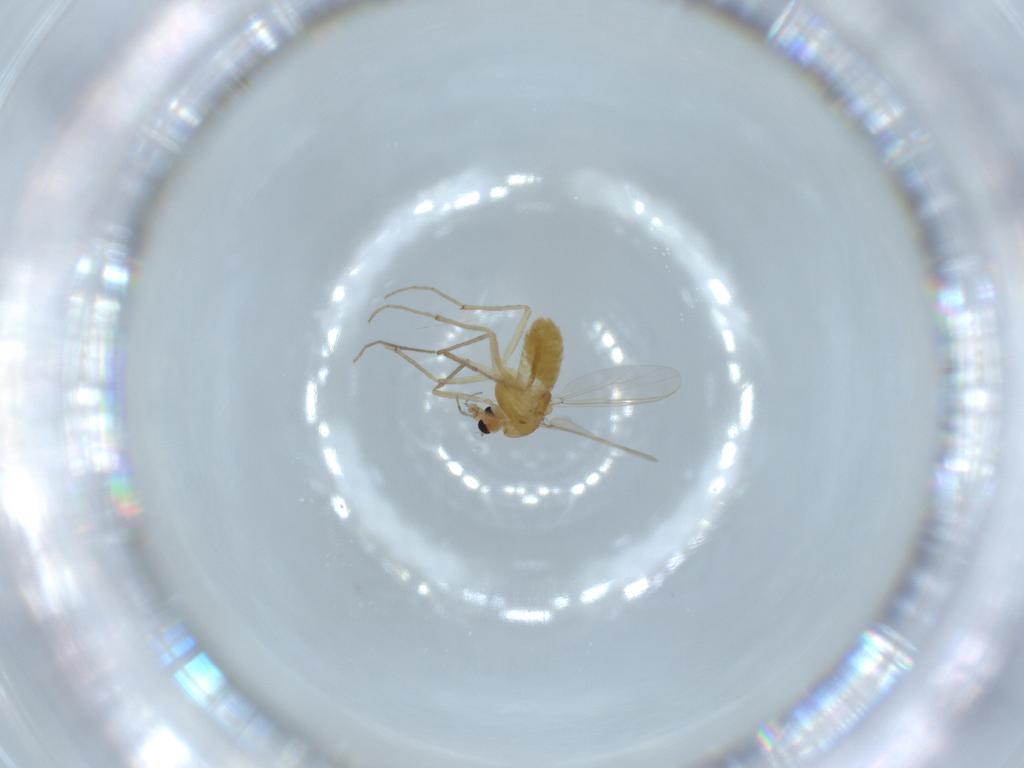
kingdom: Animalia
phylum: Arthropoda
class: Insecta
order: Diptera
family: Chironomidae
